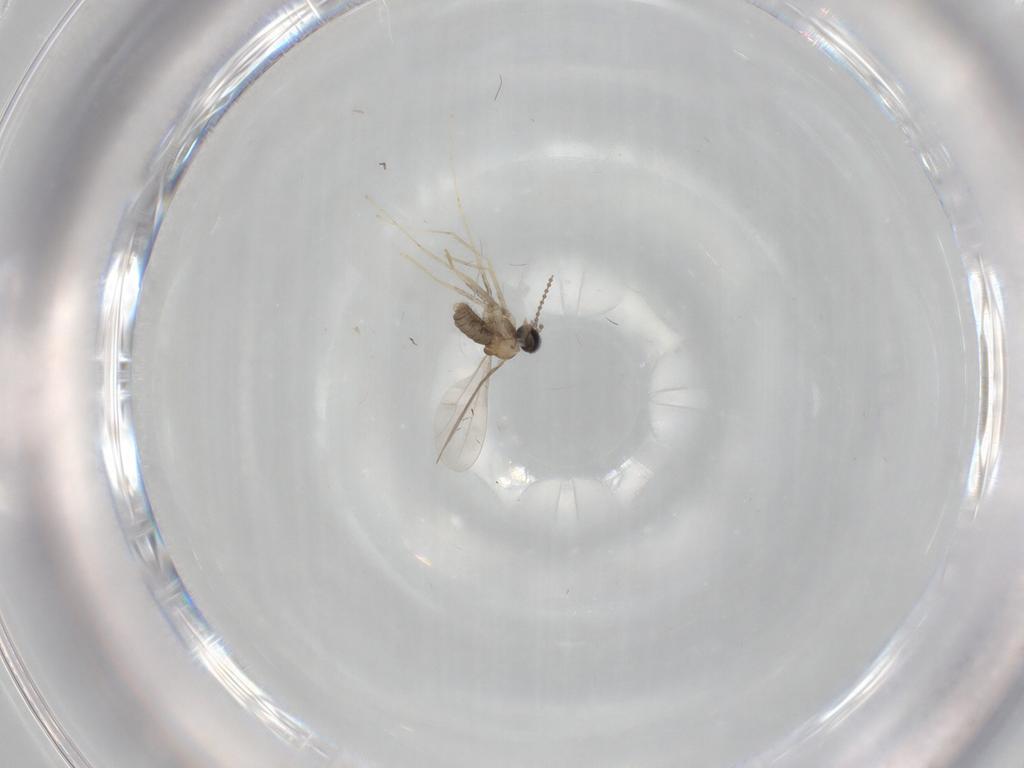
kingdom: Animalia
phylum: Arthropoda
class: Insecta
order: Diptera
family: Cecidomyiidae
